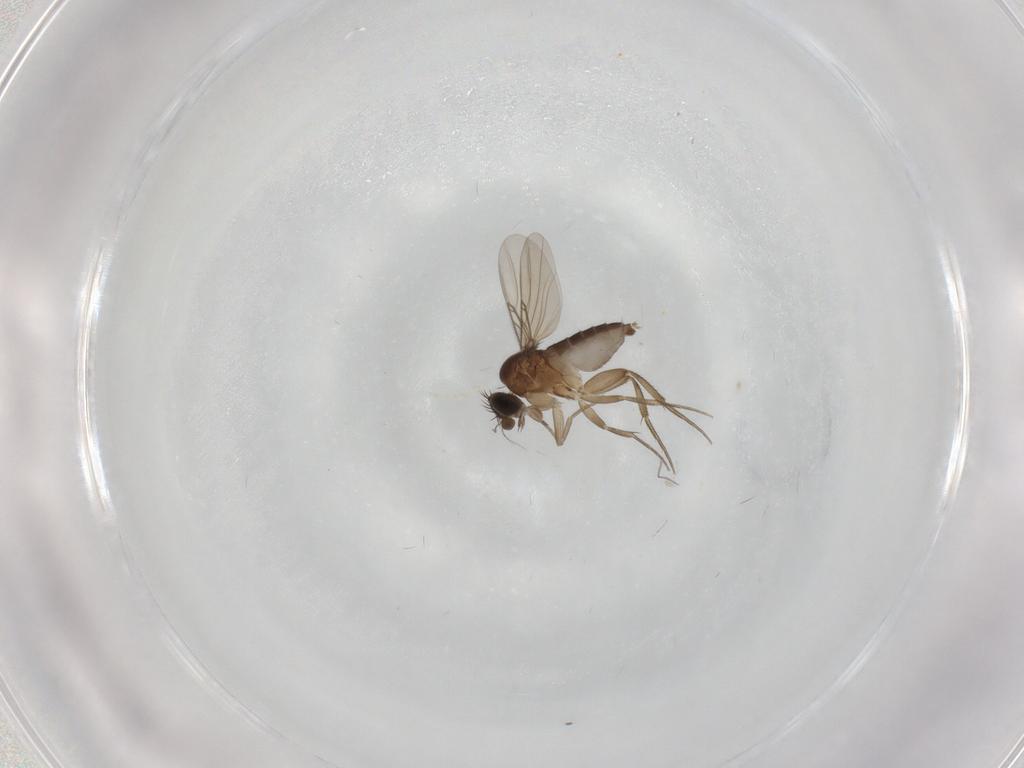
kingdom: Animalia
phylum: Arthropoda
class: Insecta
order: Diptera
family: Phoridae
